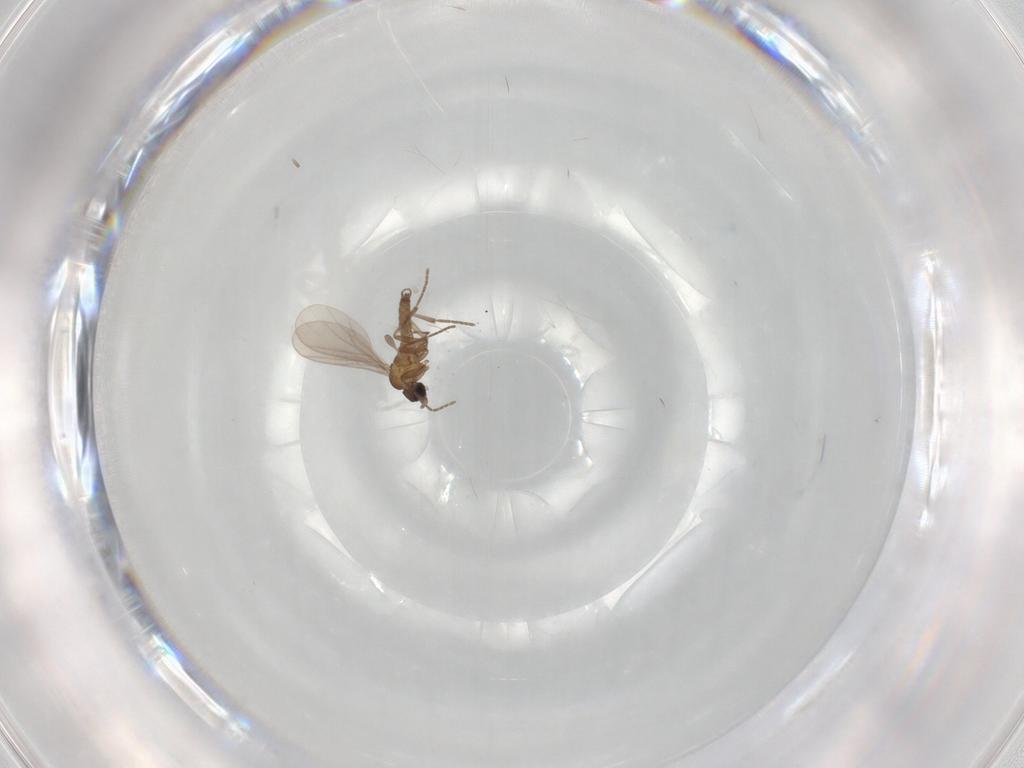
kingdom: Animalia
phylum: Arthropoda
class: Insecta
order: Diptera
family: Sciaridae
